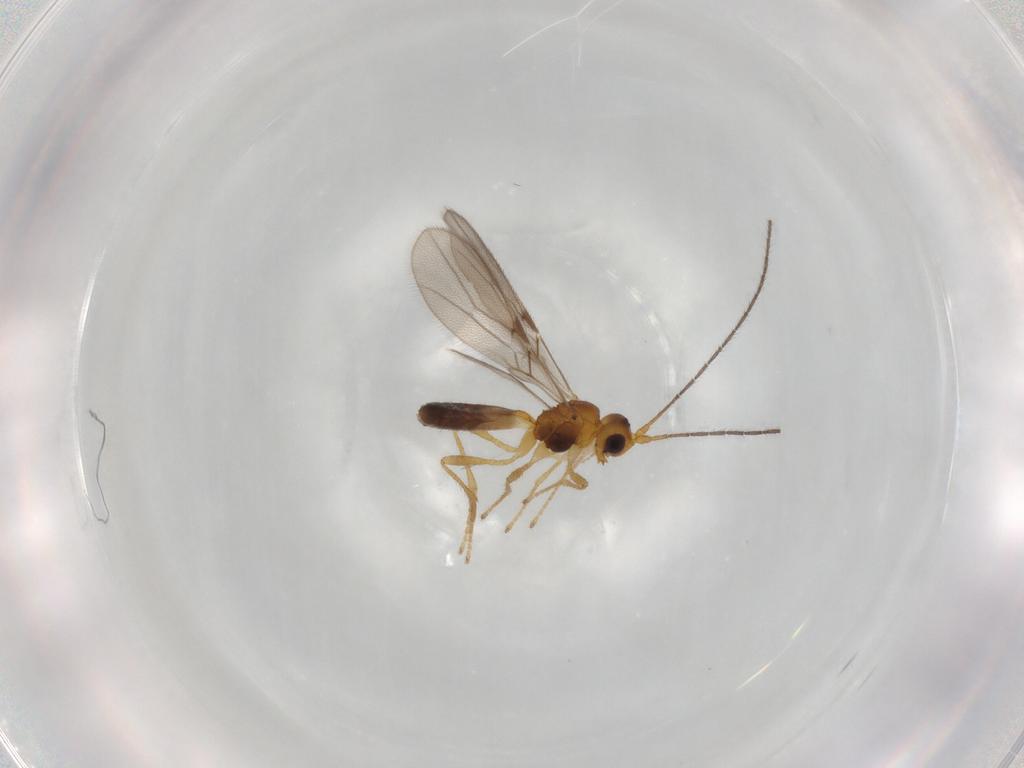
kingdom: Animalia
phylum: Arthropoda
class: Insecta
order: Hymenoptera
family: Braconidae
